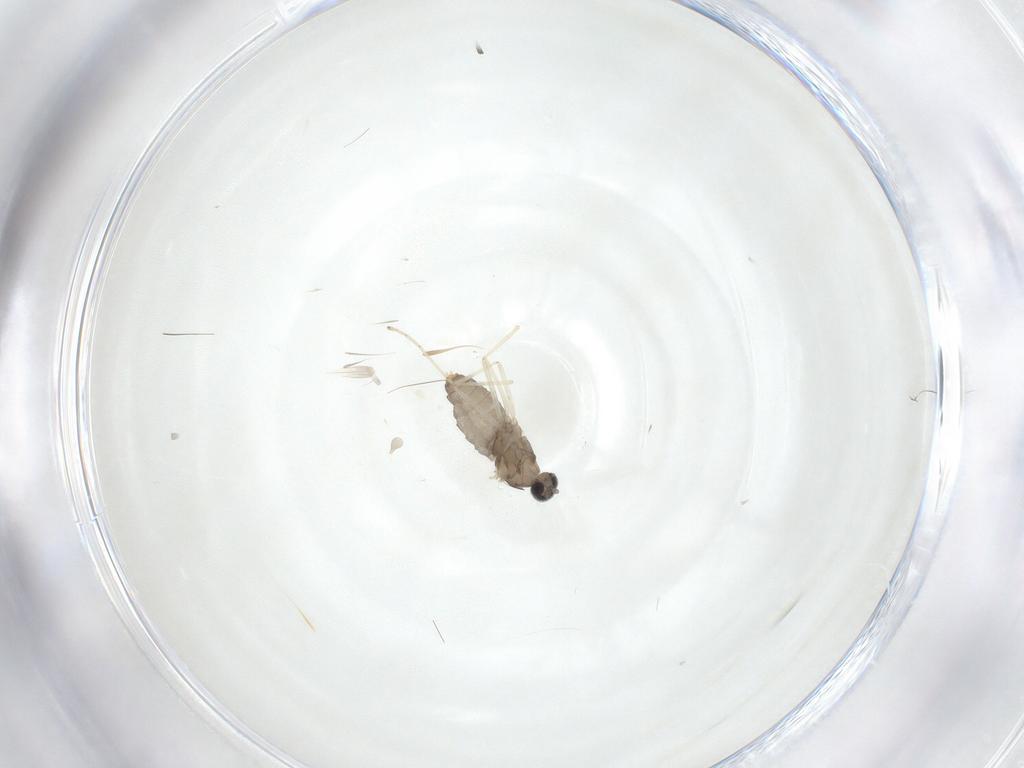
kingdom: Animalia
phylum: Arthropoda
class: Insecta
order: Diptera
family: Cecidomyiidae
